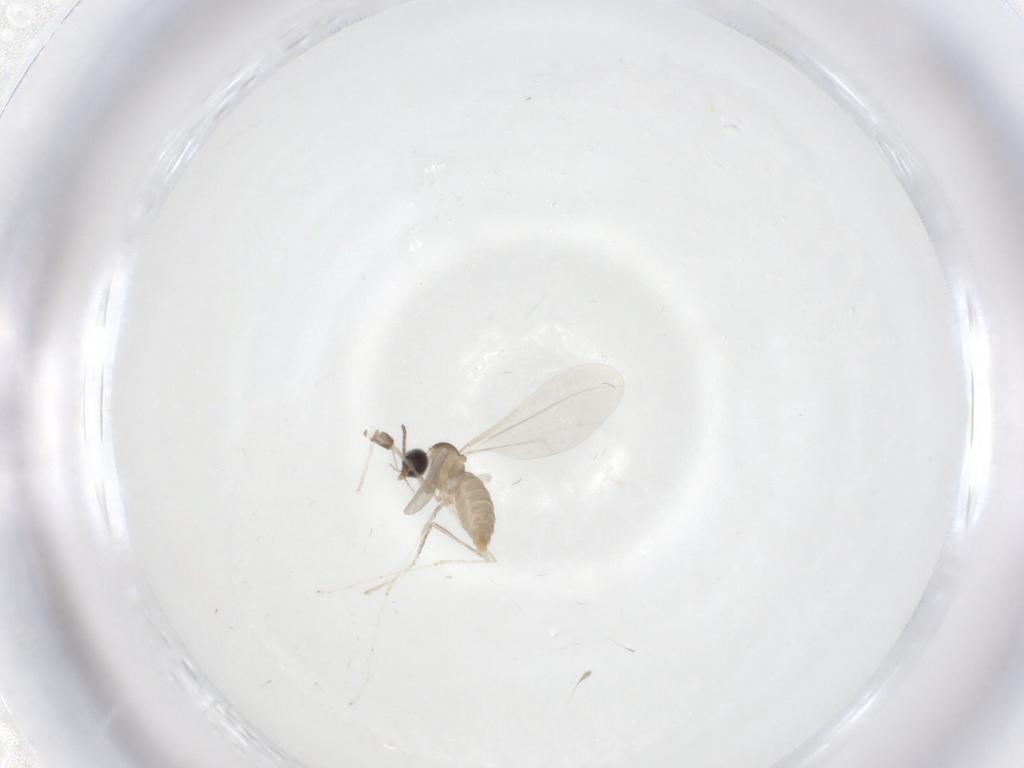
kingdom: Animalia
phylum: Arthropoda
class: Insecta
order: Diptera
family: Cecidomyiidae
